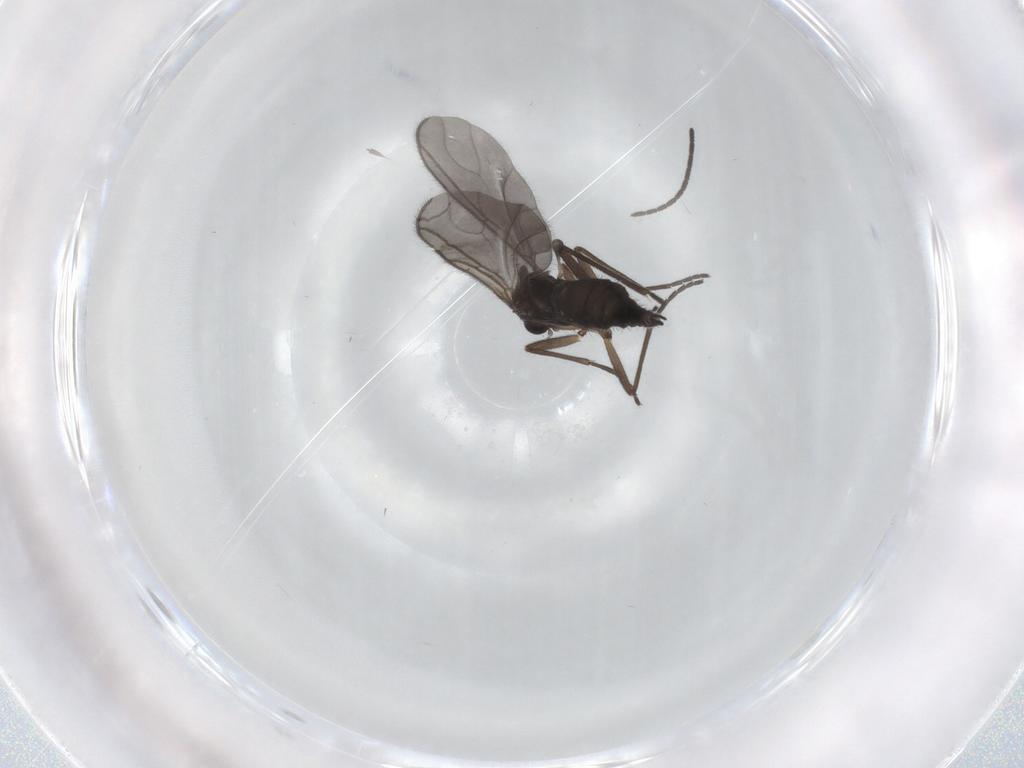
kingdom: Animalia
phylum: Arthropoda
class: Insecta
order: Diptera
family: Sciaridae
